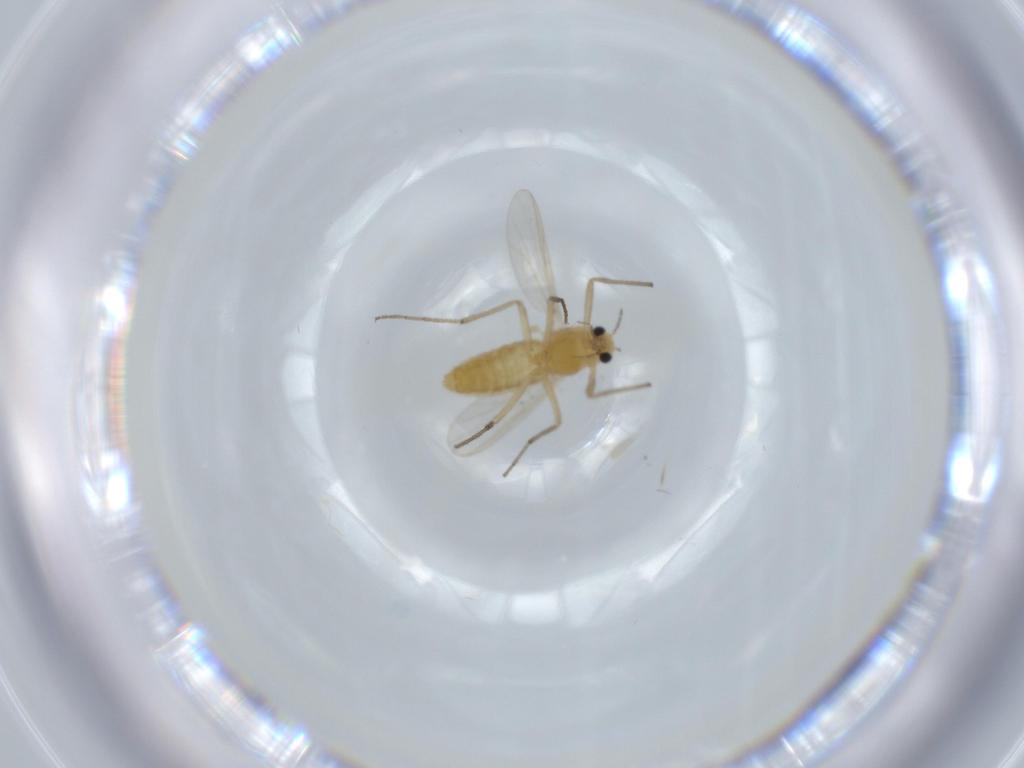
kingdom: Animalia
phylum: Arthropoda
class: Insecta
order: Diptera
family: Chironomidae
